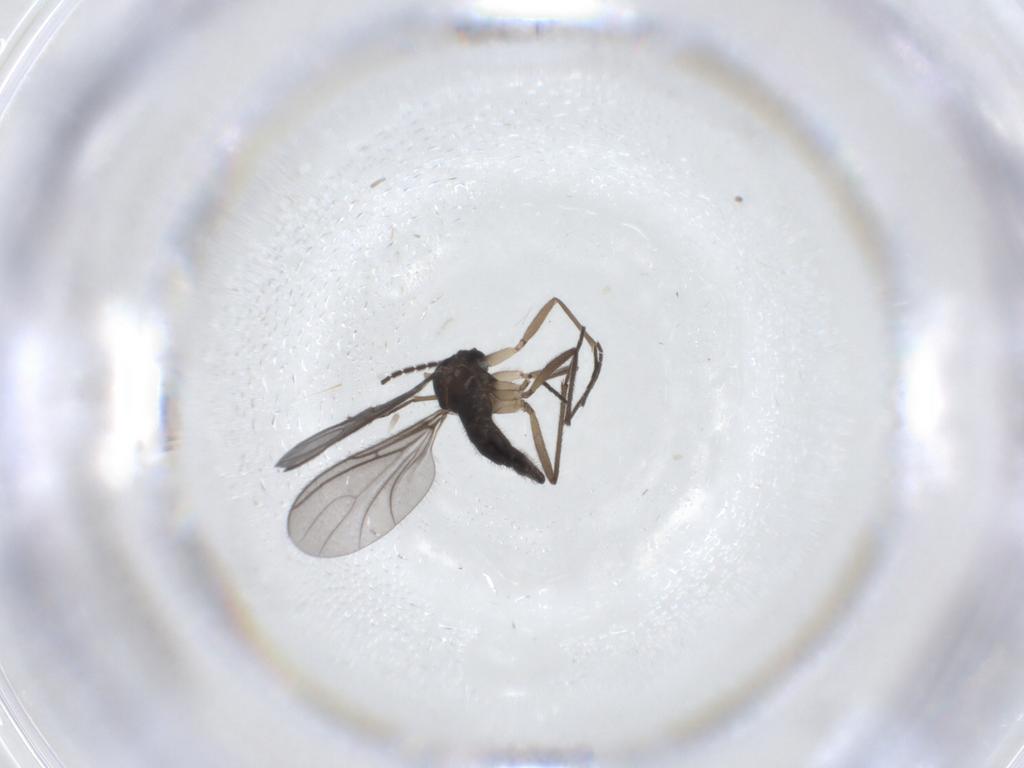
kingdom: Animalia
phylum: Arthropoda
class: Insecta
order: Diptera
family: Sciaridae
